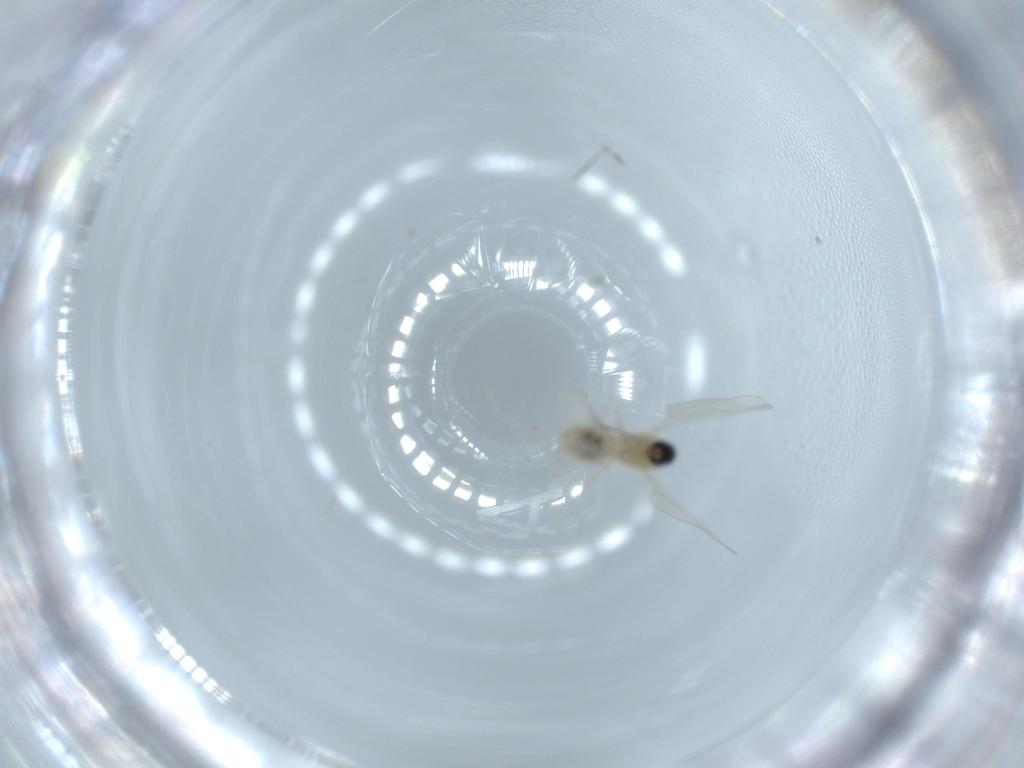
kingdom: Animalia
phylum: Arthropoda
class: Insecta
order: Diptera
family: Cecidomyiidae
